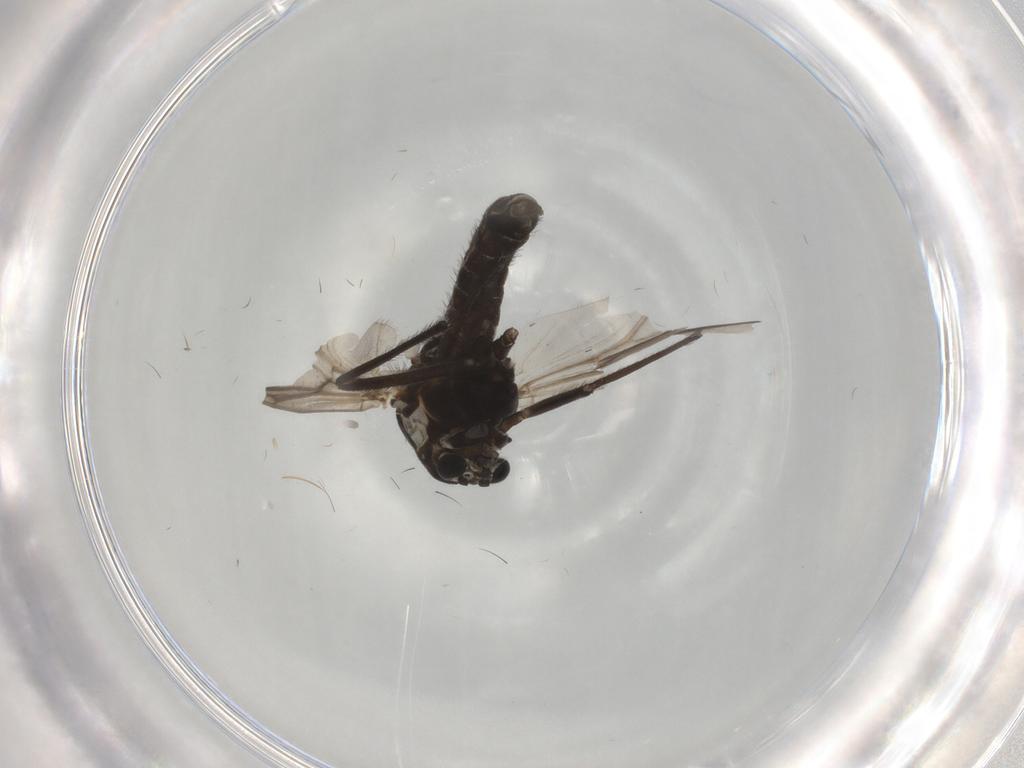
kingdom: Animalia
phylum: Arthropoda
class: Insecta
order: Diptera
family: Chironomidae
